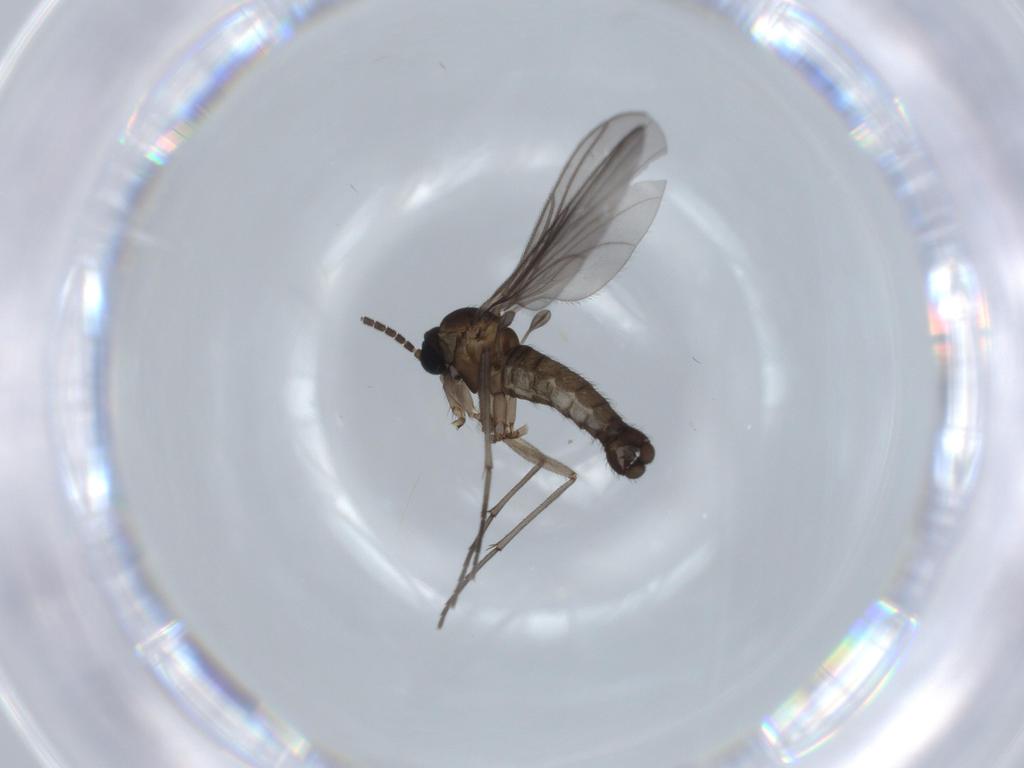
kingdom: Animalia
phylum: Arthropoda
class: Insecta
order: Diptera
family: Sciaridae
